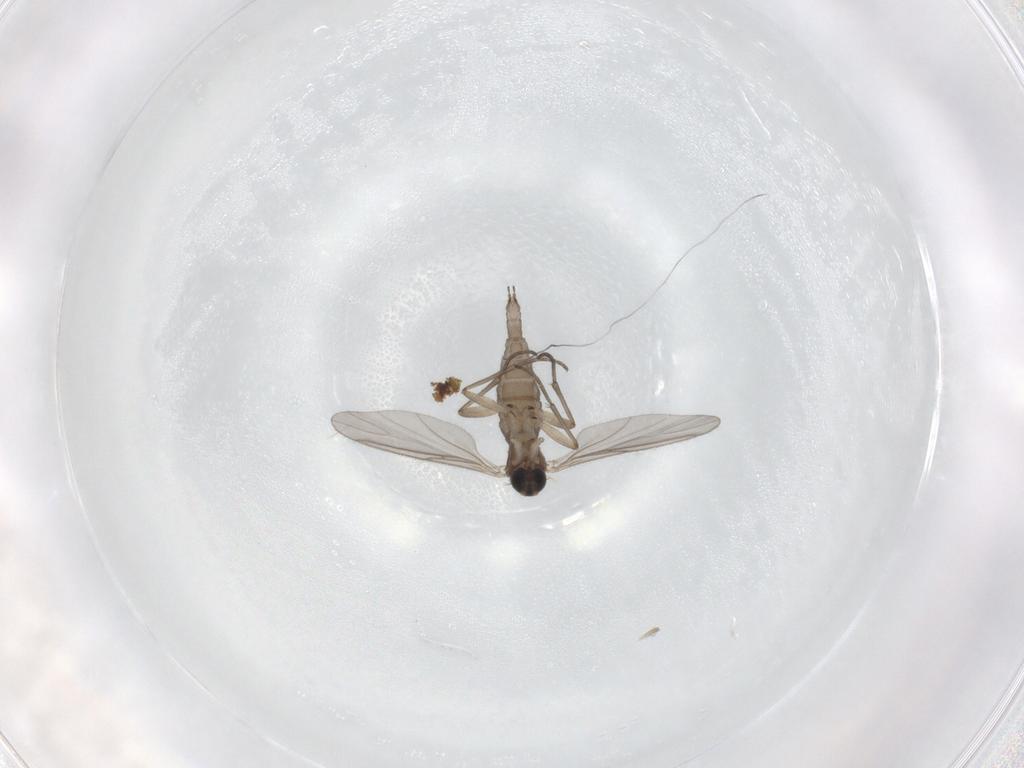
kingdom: Animalia
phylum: Arthropoda
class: Insecta
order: Diptera
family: Sciaridae
